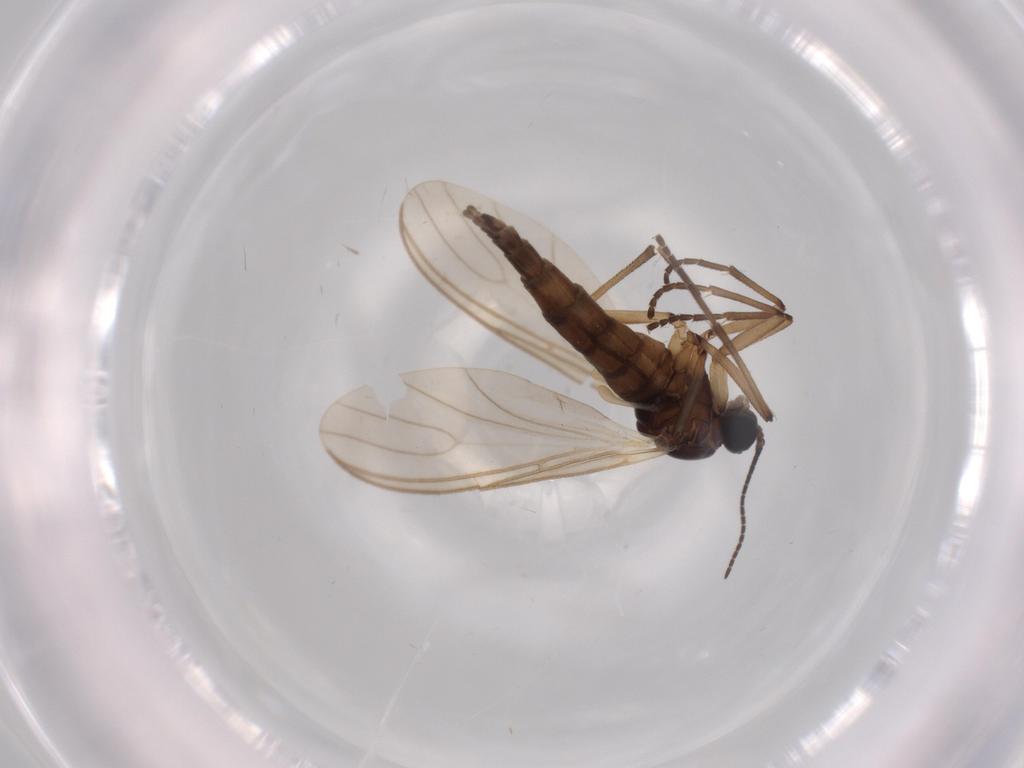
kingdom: Animalia
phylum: Arthropoda
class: Insecta
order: Diptera
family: Sciaridae
